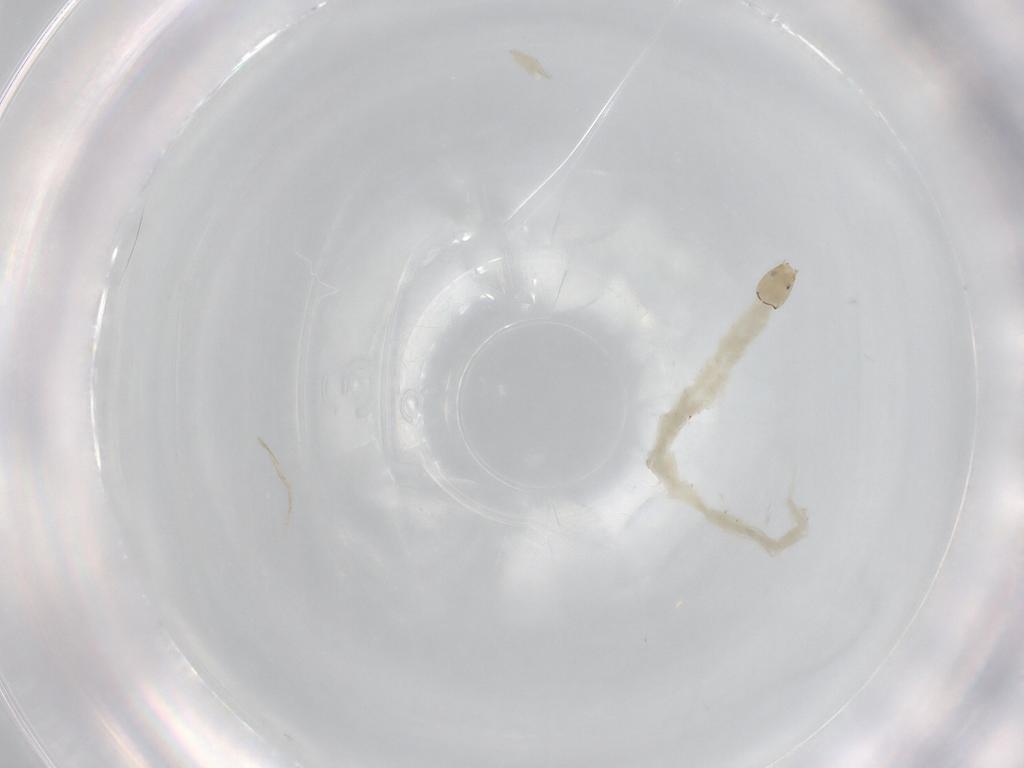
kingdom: Animalia
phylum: Arthropoda
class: Insecta
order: Diptera
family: Chironomidae
